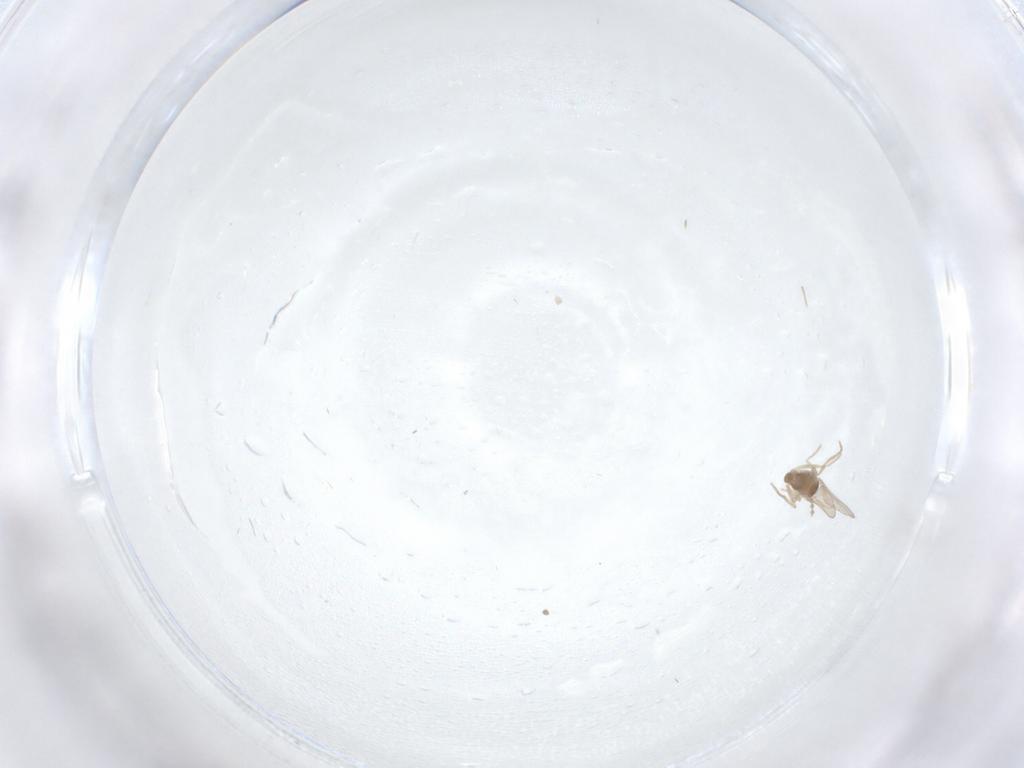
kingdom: Animalia
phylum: Arthropoda
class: Insecta
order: Diptera
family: Cecidomyiidae
